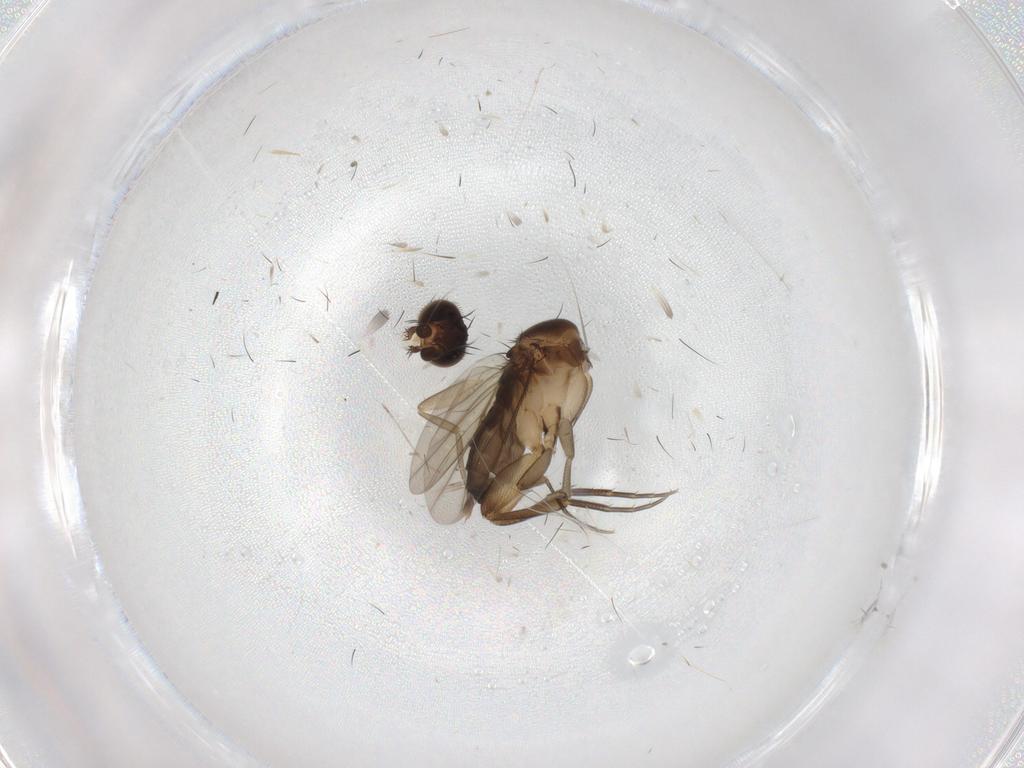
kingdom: Animalia
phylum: Arthropoda
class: Insecta
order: Diptera
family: Phoridae
